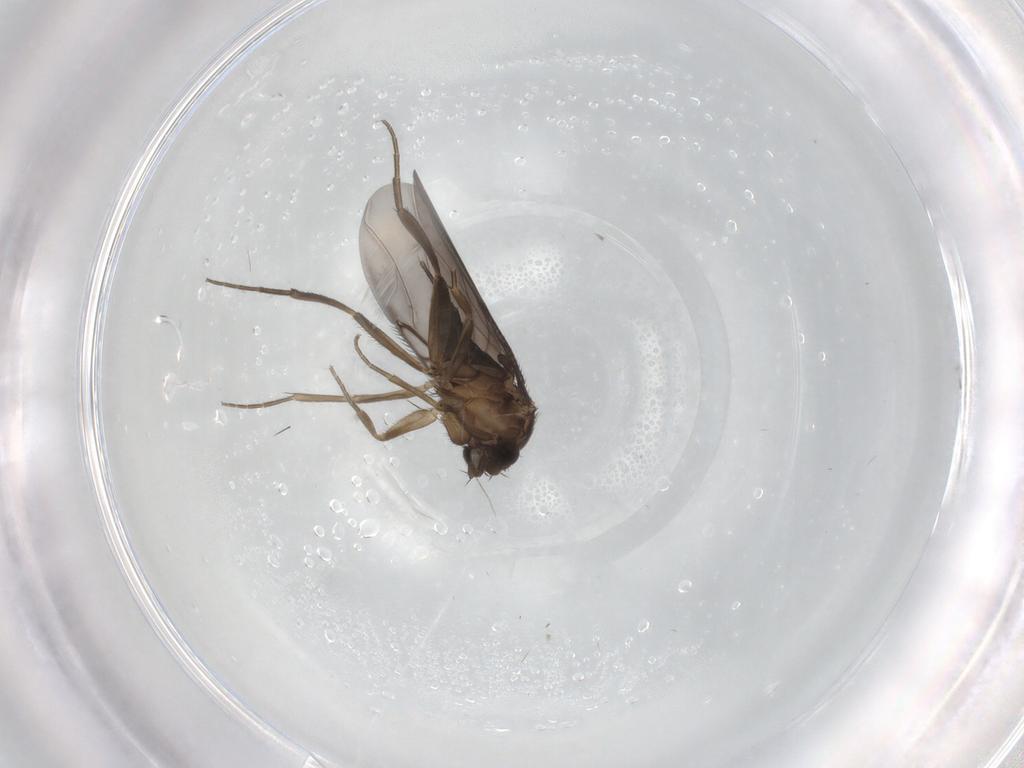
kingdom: Animalia
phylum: Arthropoda
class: Insecta
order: Diptera
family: Phoridae
